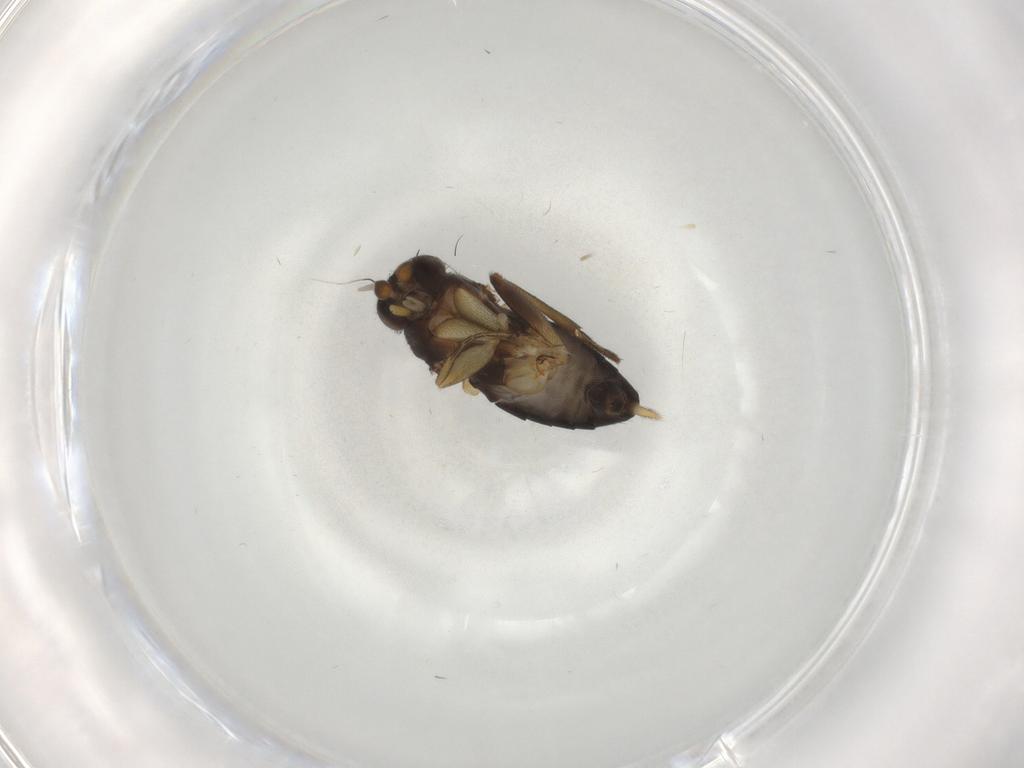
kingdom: Animalia
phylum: Arthropoda
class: Insecta
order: Diptera
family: Phoridae
